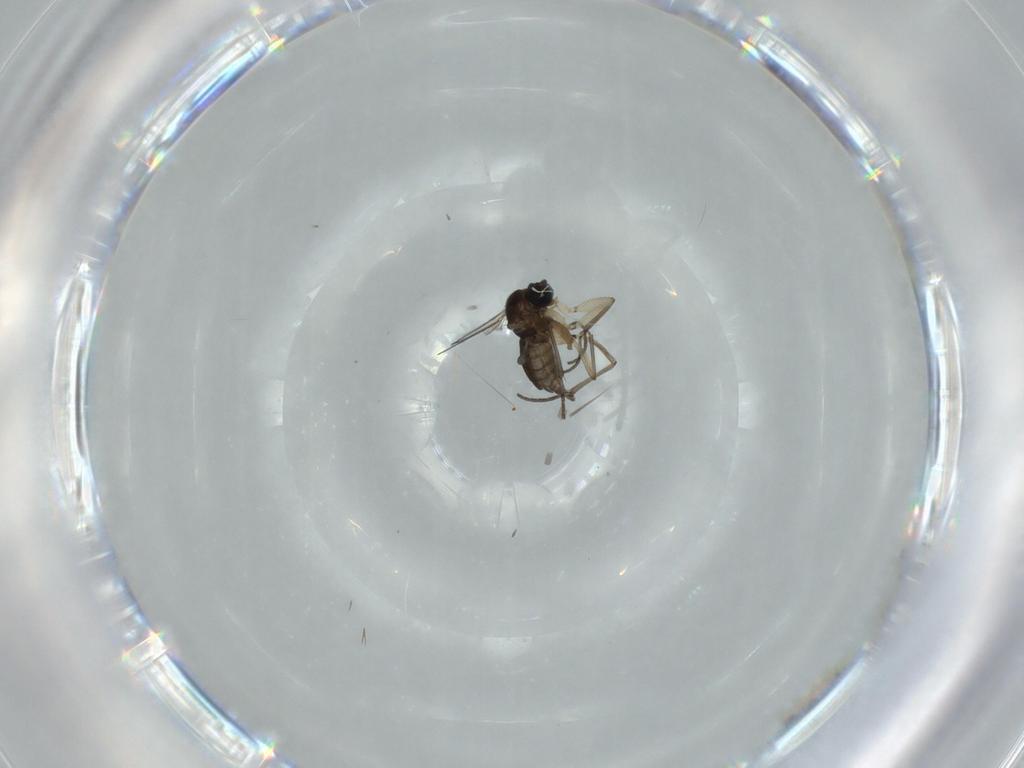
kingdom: Animalia
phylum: Arthropoda
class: Insecta
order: Diptera
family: Sciaridae
